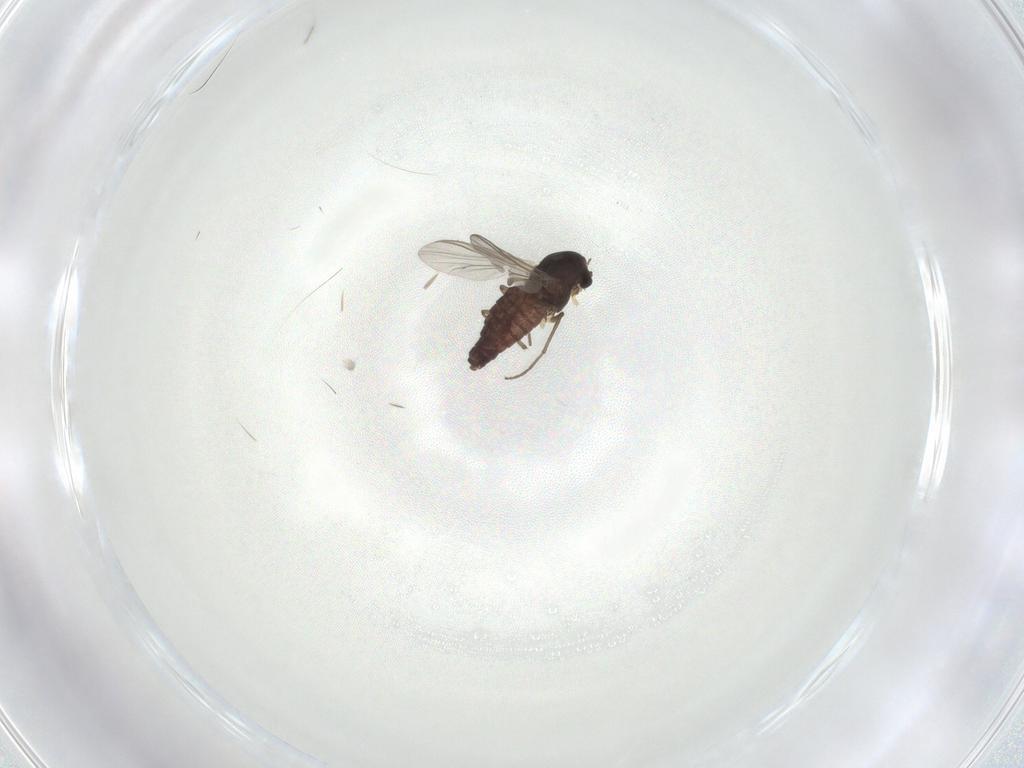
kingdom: Animalia
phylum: Arthropoda
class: Insecta
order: Diptera
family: Chironomidae
